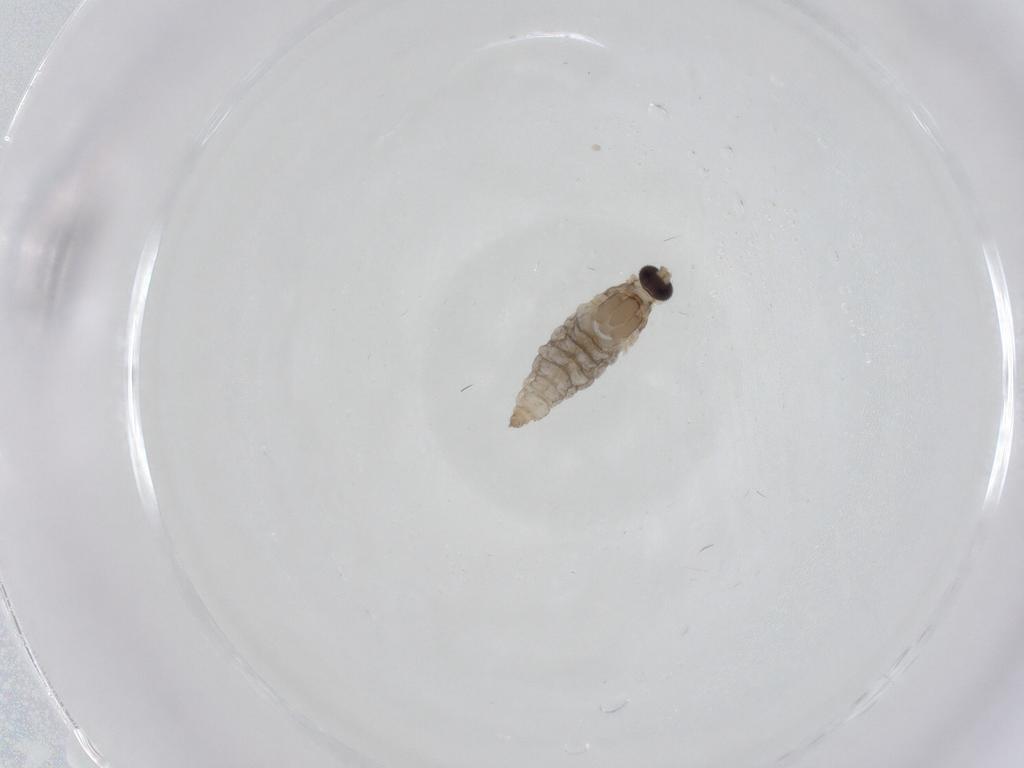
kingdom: Animalia
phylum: Arthropoda
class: Insecta
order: Diptera
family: Cecidomyiidae
